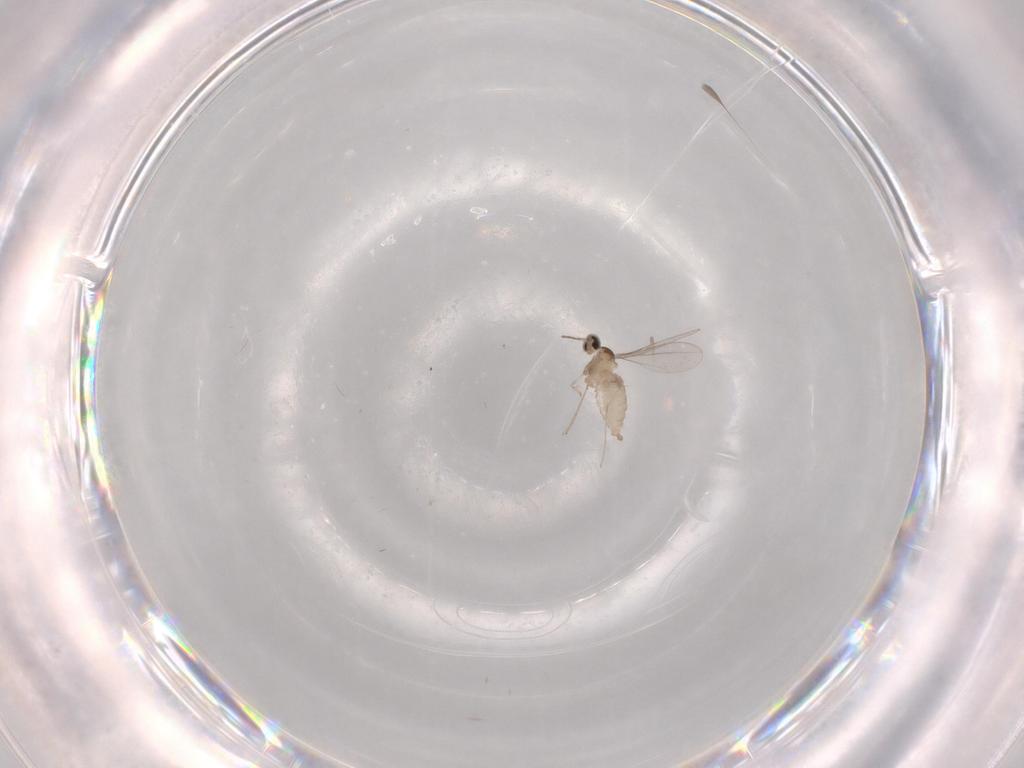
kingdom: Animalia
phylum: Arthropoda
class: Insecta
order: Diptera
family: Cecidomyiidae
